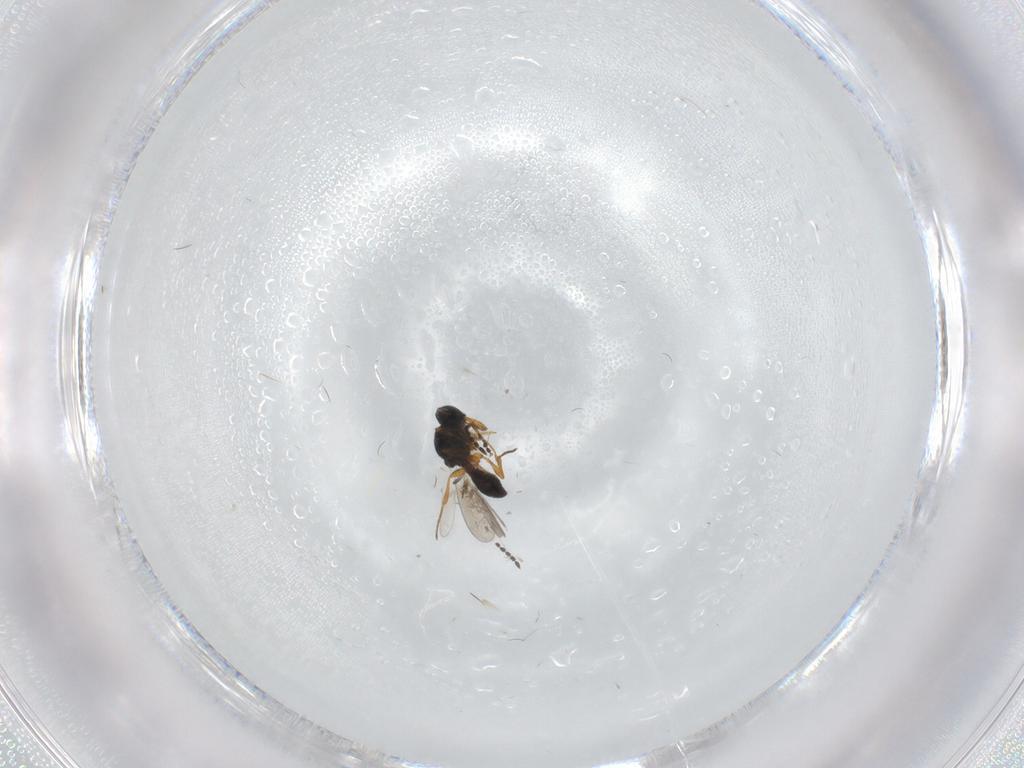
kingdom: Animalia
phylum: Arthropoda
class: Insecta
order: Hymenoptera
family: Platygastridae
